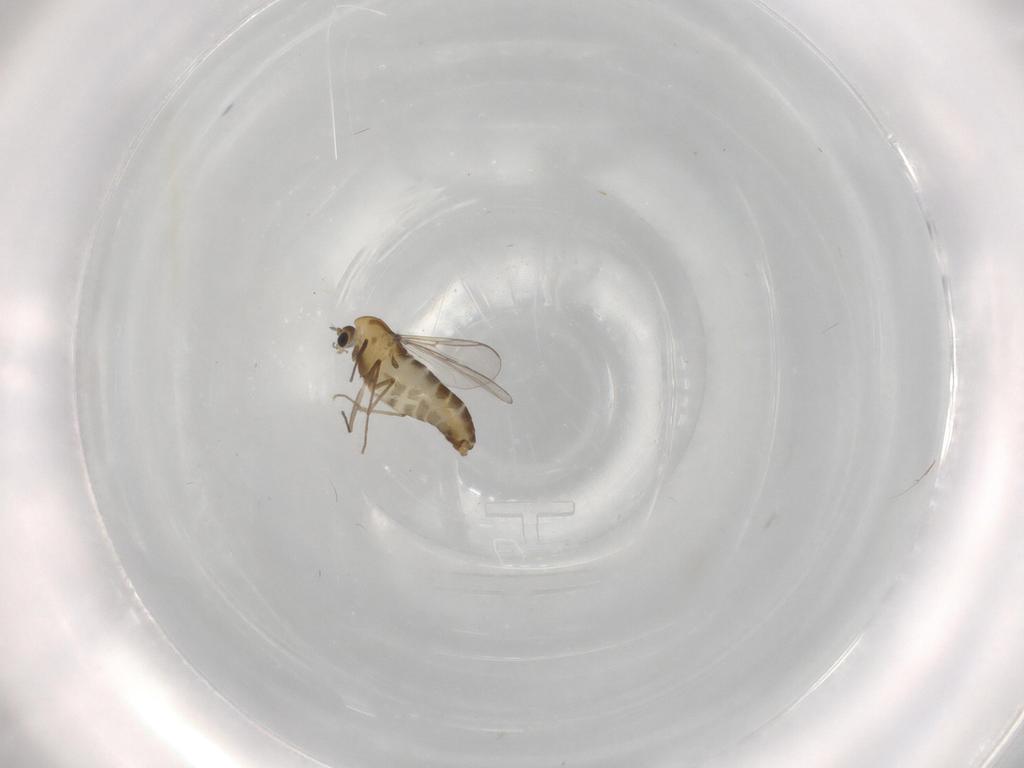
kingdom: Animalia
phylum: Arthropoda
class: Insecta
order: Diptera
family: Chironomidae
